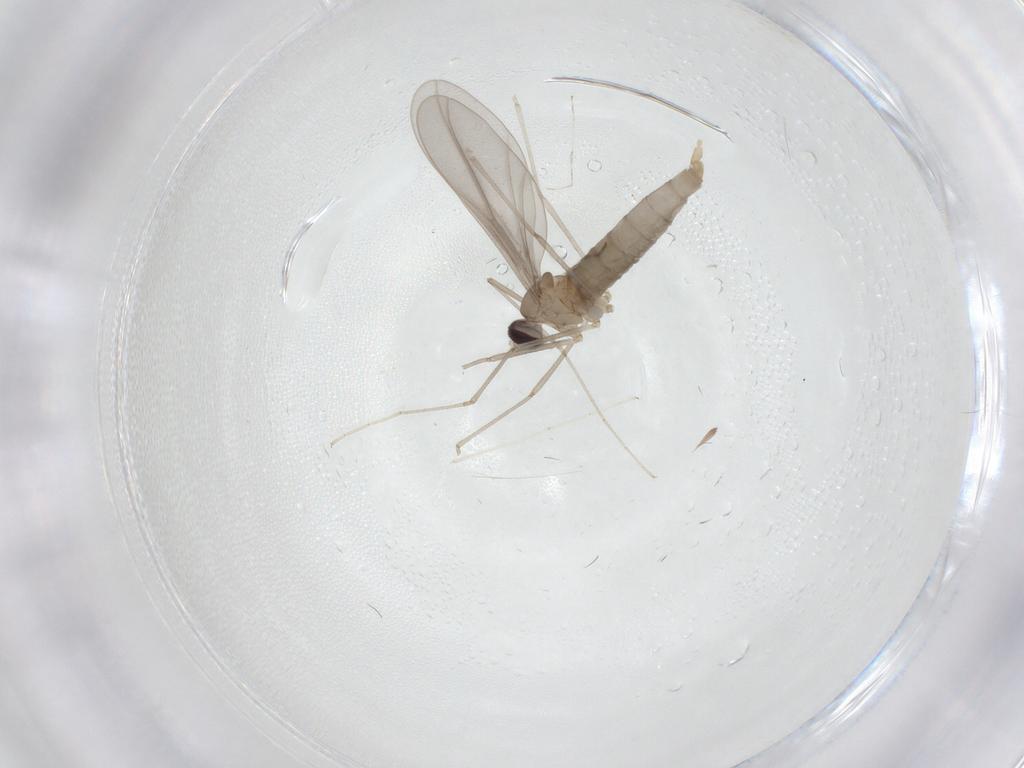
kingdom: Animalia
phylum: Arthropoda
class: Insecta
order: Diptera
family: Cecidomyiidae
